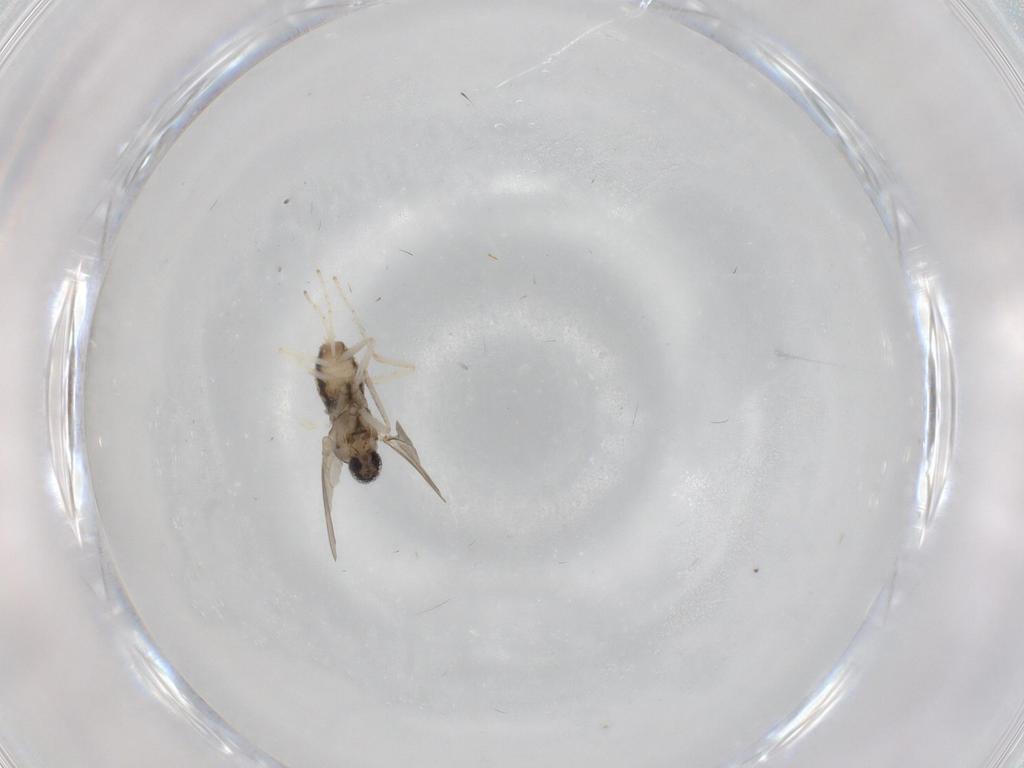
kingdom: Animalia
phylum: Arthropoda
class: Insecta
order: Diptera
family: Cecidomyiidae
